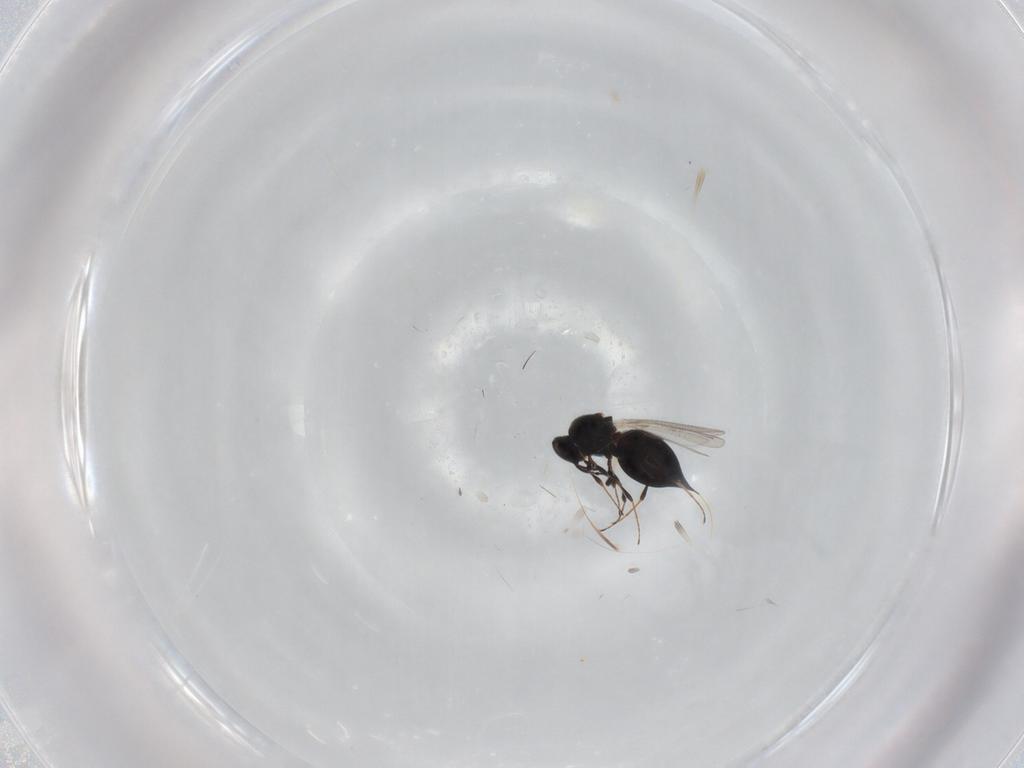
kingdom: Animalia
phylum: Arthropoda
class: Insecta
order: Hymenoptera
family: Platygastridae
